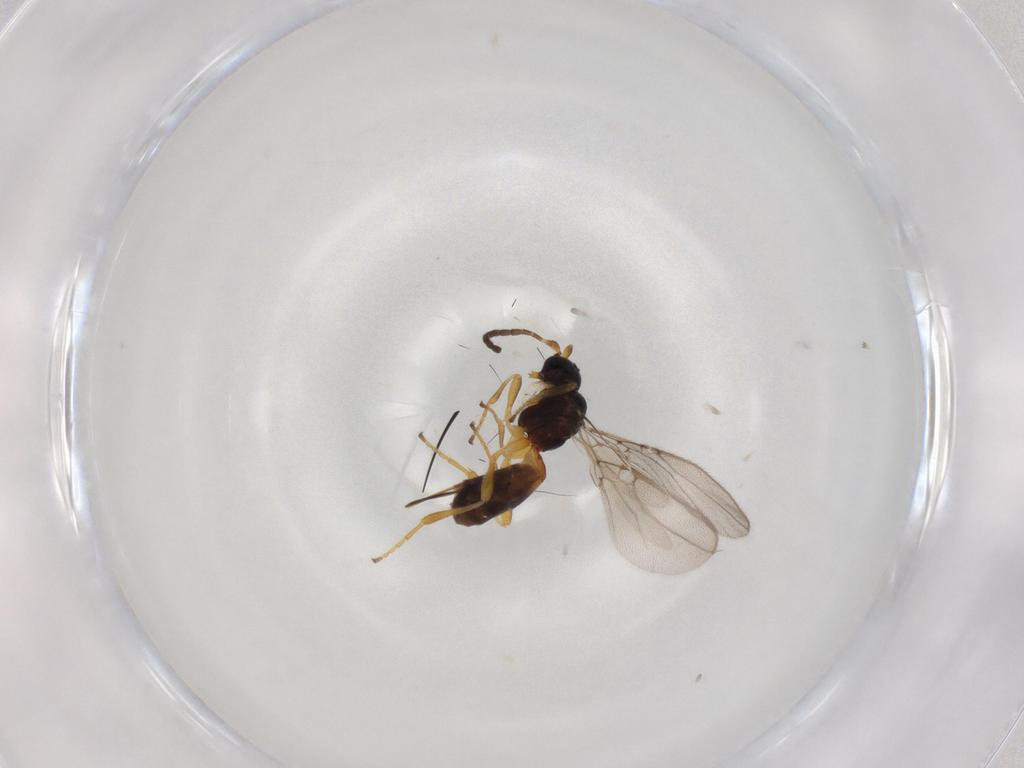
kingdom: Animalia
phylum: Arthropoda
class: Insecta
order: Hymenoptera
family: Braconidae
